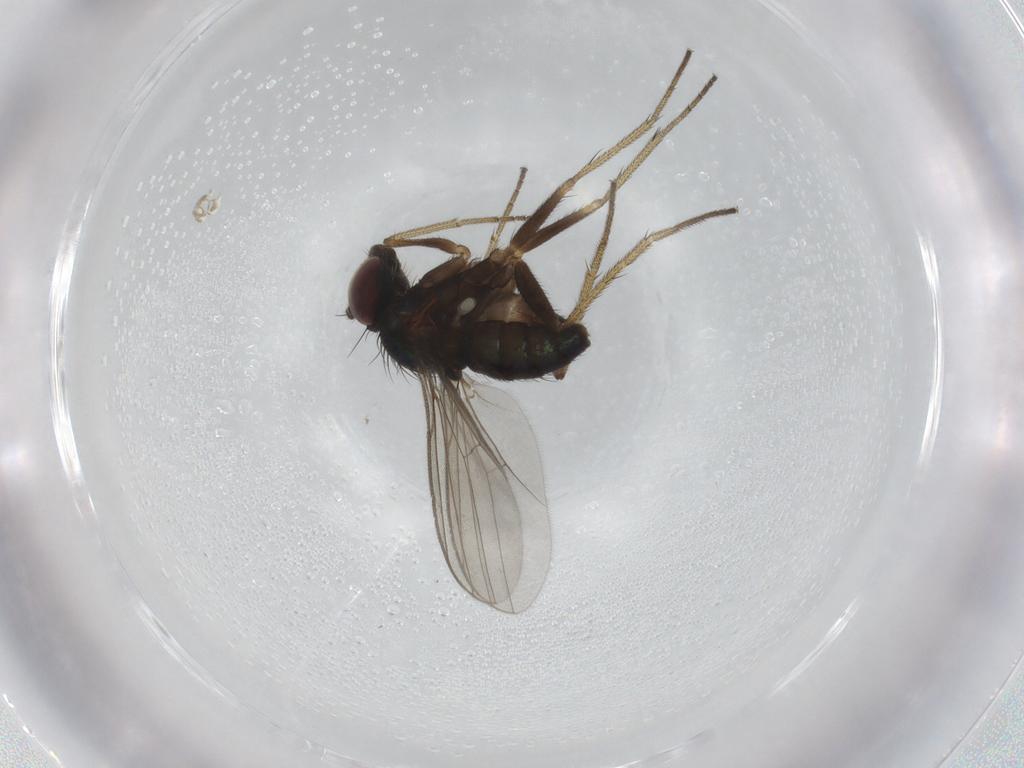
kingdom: Animalia
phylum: Arthropoda
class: Insecta
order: Diptera
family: Dolichopodidae
